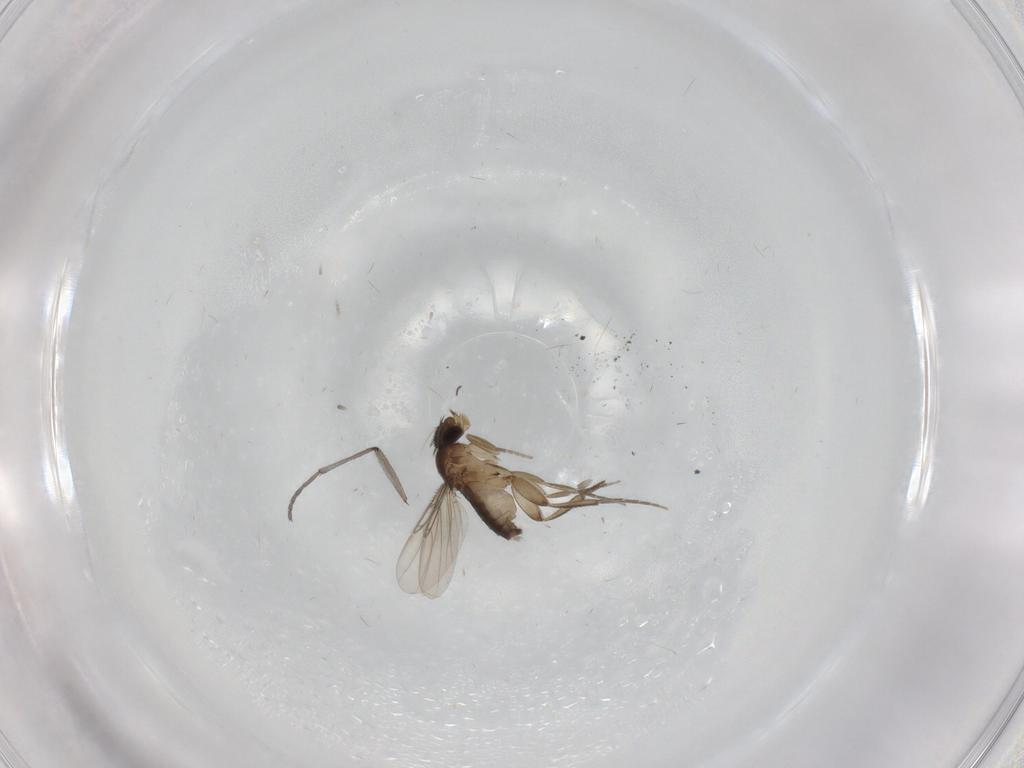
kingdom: Animalia
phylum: Arthropoda
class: Insecta
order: Diptera
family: Phoridae
